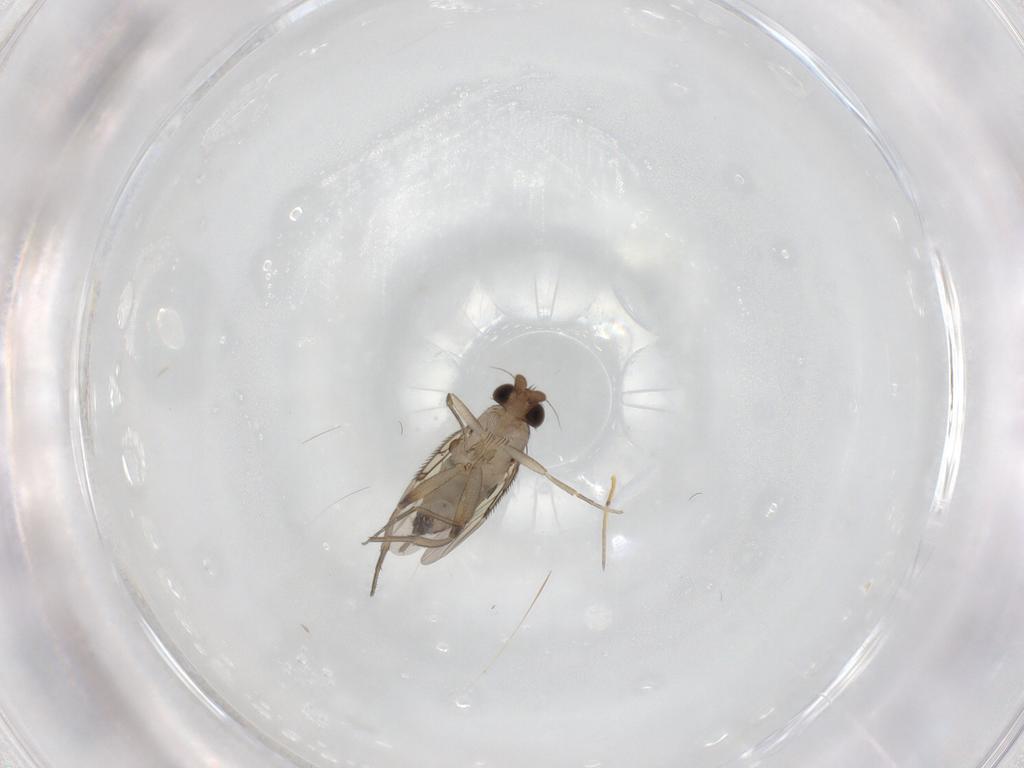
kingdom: Animalia
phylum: Arthropoda
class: Insecta
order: Diptera
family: Phoridae
